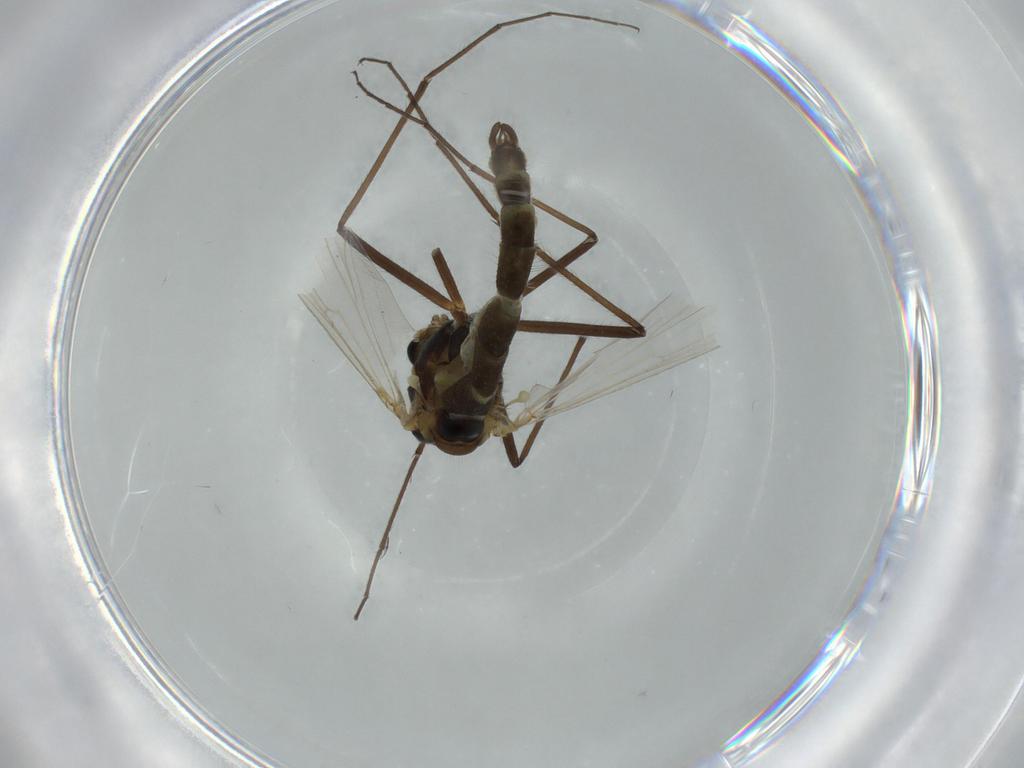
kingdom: Animalia
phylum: Arthropoda
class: Insecta
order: Diptera
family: Chironomidae
